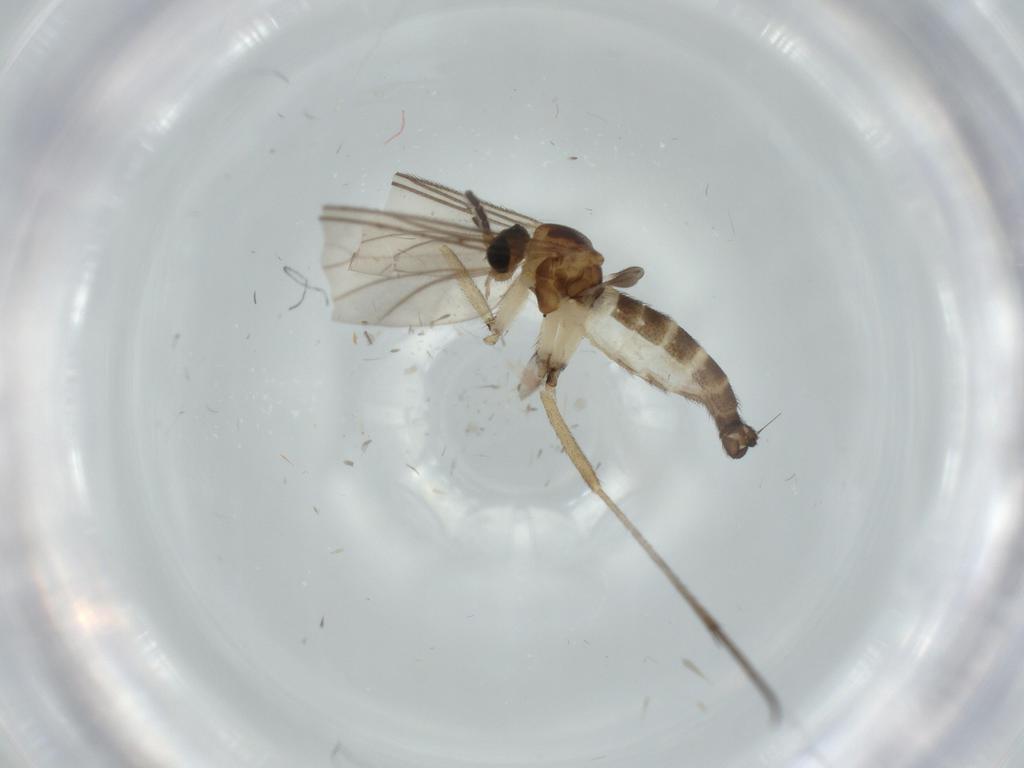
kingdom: Animalia
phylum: Arthropoda
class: Insecta
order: Diptera
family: Sciaridae
